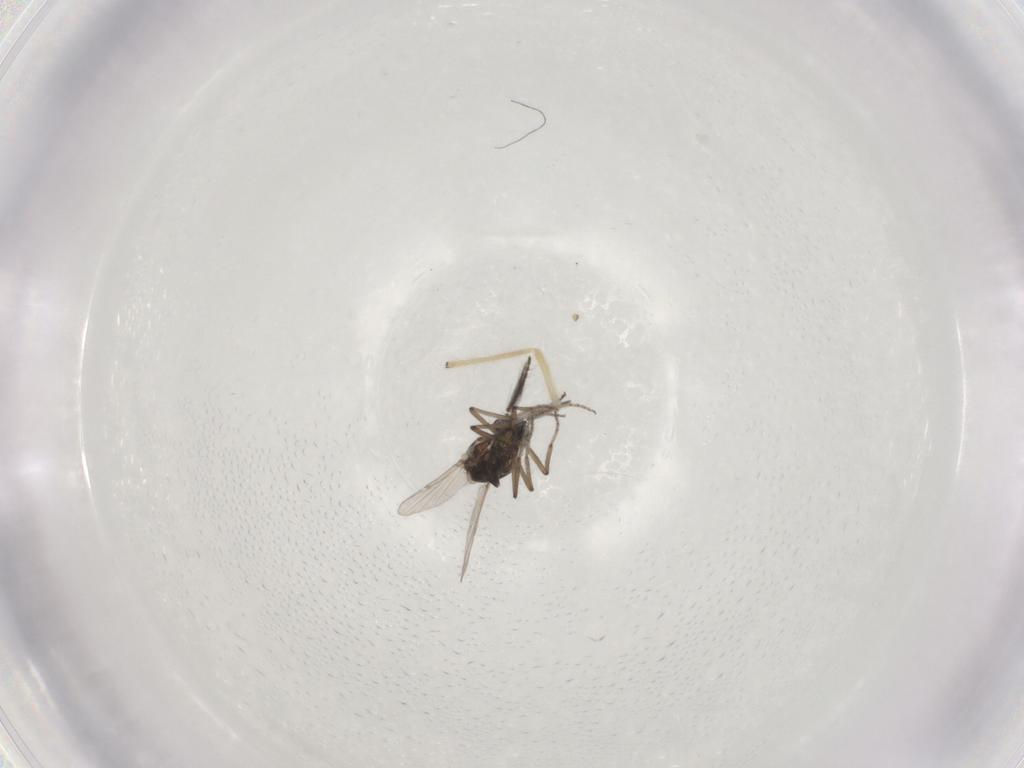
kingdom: Animalia
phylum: Arthropoda
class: Insecta
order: Diptera
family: Ceratopogonidae
